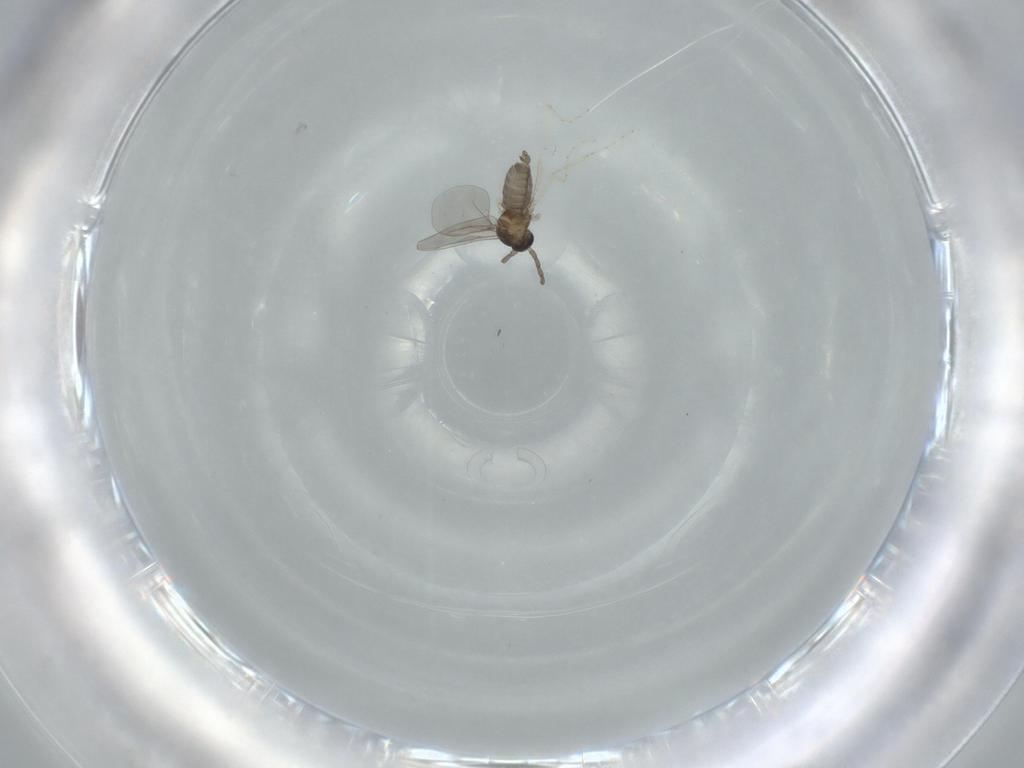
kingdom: Animalia
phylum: Arthropoda
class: Insecta
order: Diptera
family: Cecidomyiidae
